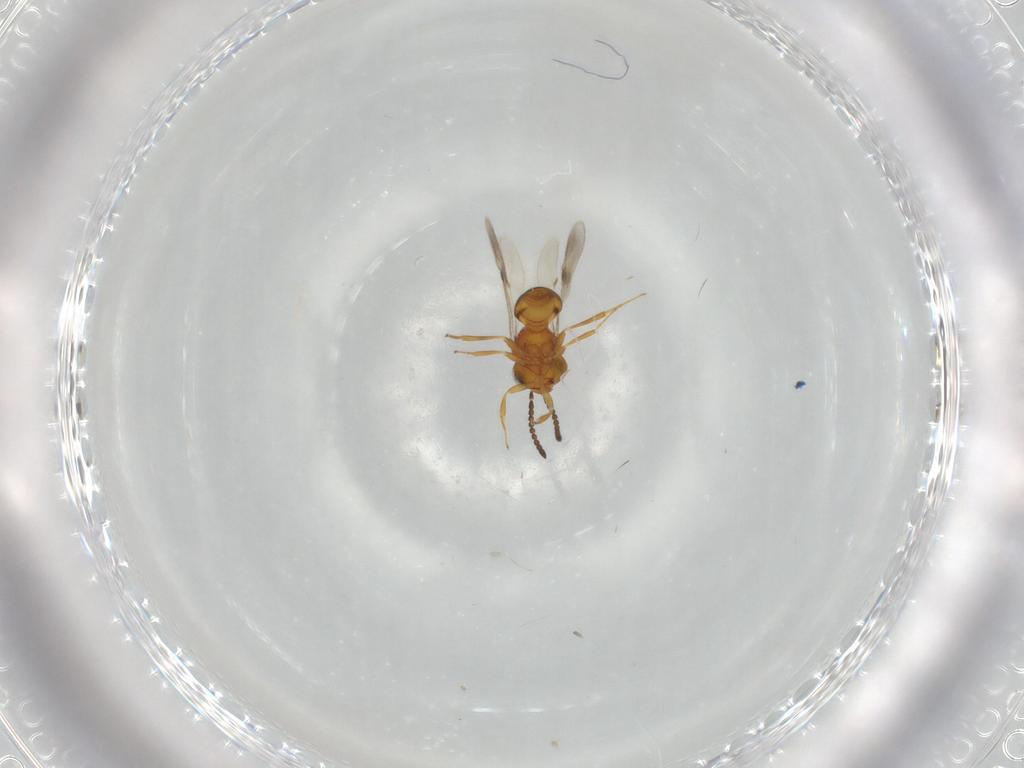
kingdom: Animalia
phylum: Arthropoda
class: Insecta
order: Hymenoptera
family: Scelionidae
